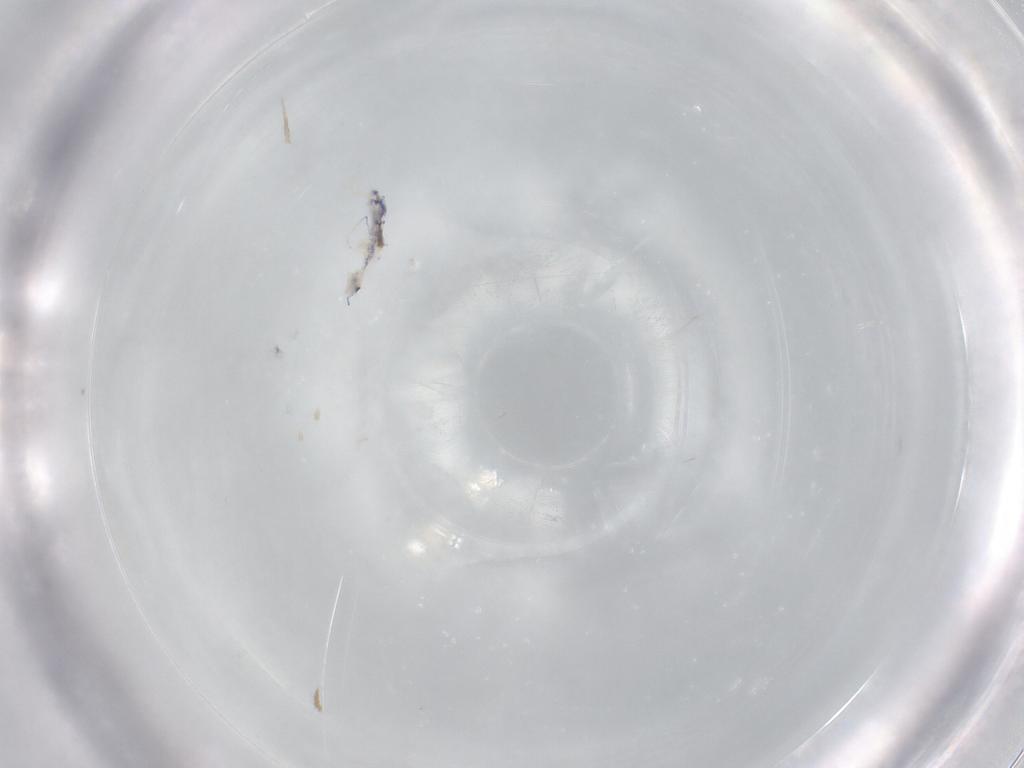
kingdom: Animalia
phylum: Arthropoda
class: Collembola
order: Entomobryomorpha
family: Entomobryidae
